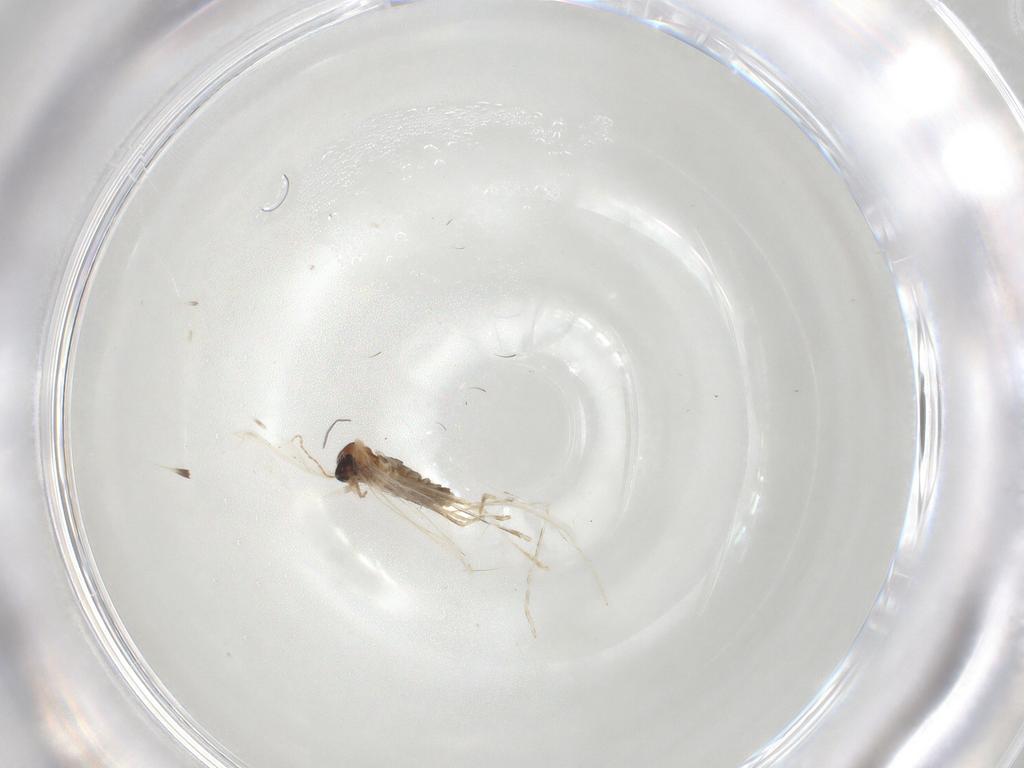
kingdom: Animalia
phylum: Arthropoda
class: Insecta
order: Diptera
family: Cecidomyiidae
